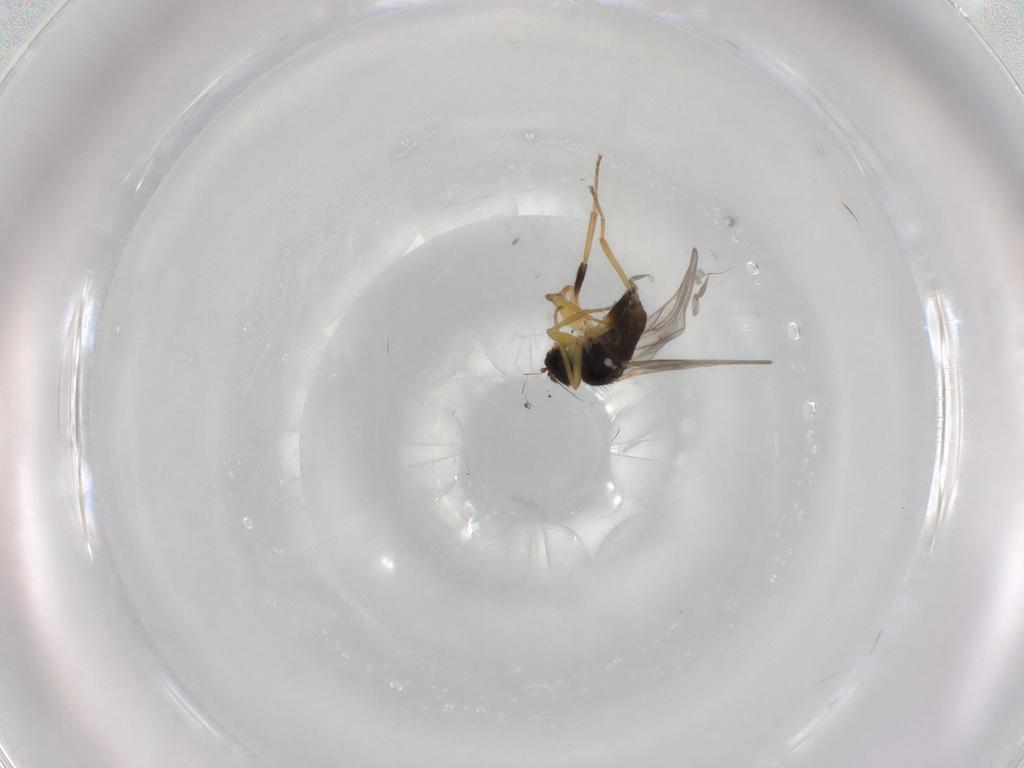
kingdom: Animalia
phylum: Arthropoda
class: Insecta
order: Diptera
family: Hybotidae
